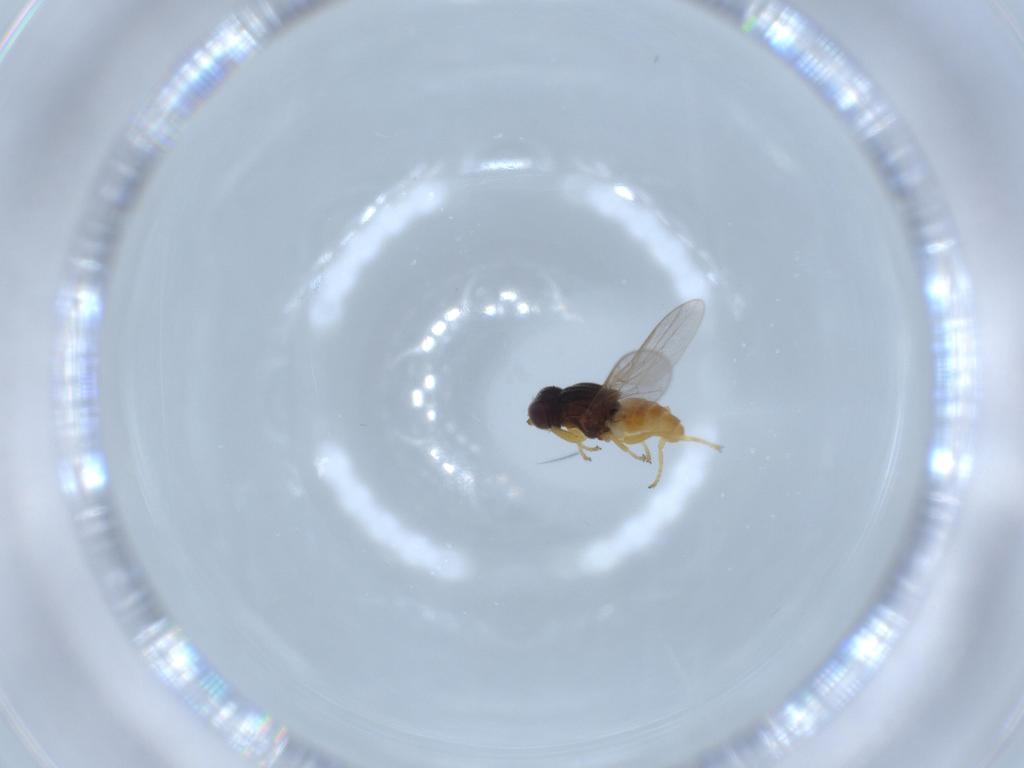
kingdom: Animalia
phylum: Arthropoda
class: Insecta
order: Diptera
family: Chloropidae
